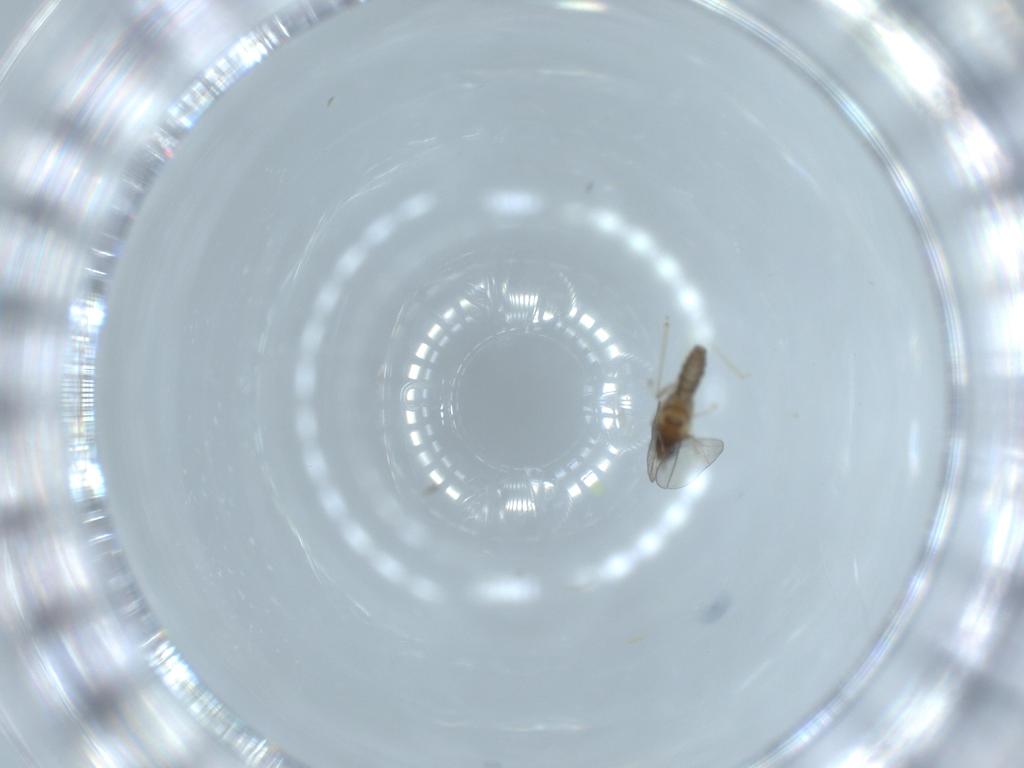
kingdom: Animalia
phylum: Arthropoda
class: Insecta
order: Diptera
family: Cecidomyiidae
